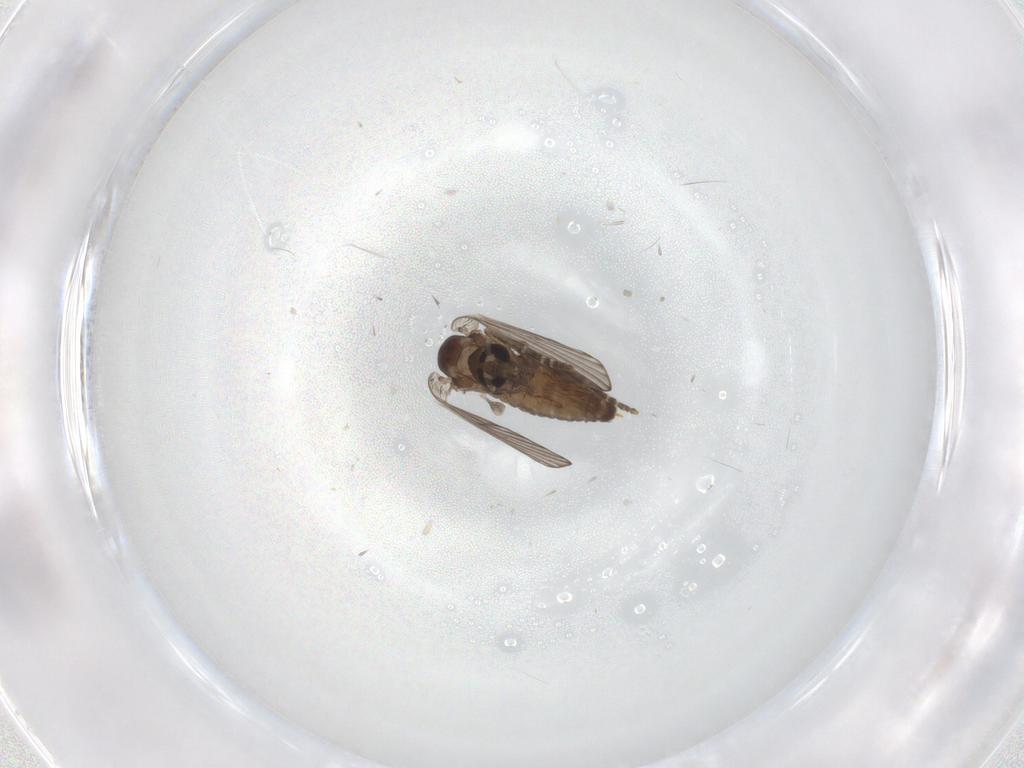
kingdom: Animalia
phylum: Arthropoda
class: Insecta
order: Diptera
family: Psychodidae
